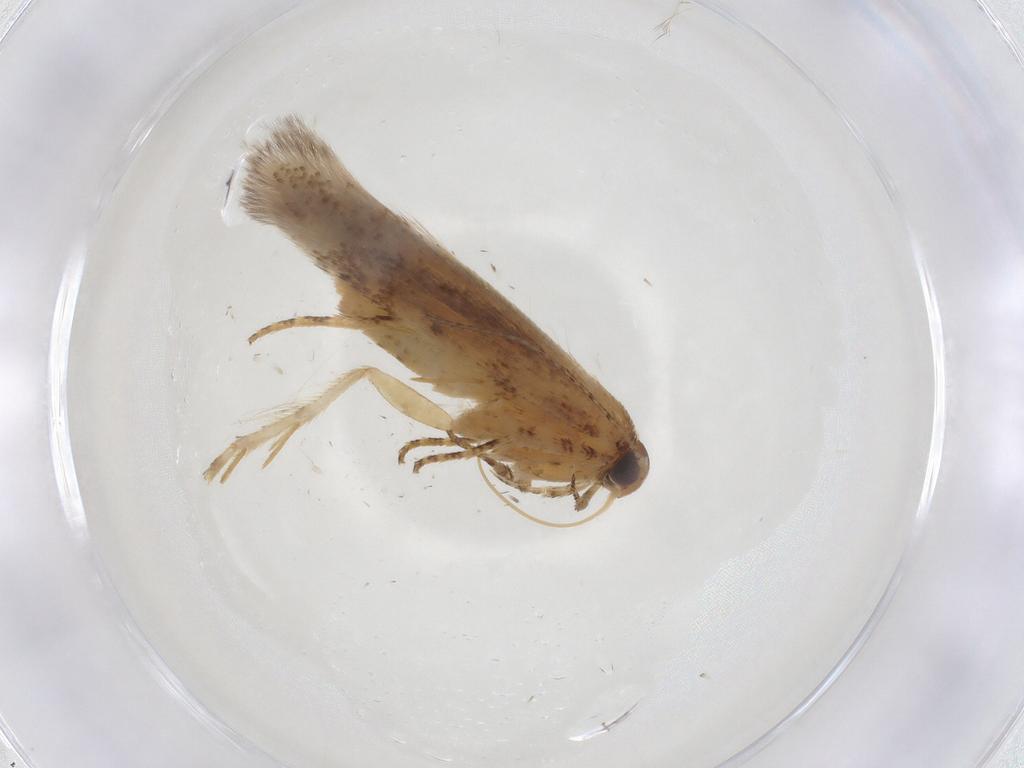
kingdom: Animalia
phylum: Arthropoda
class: Insecta
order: Lepidoptera
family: Gelechiidae
